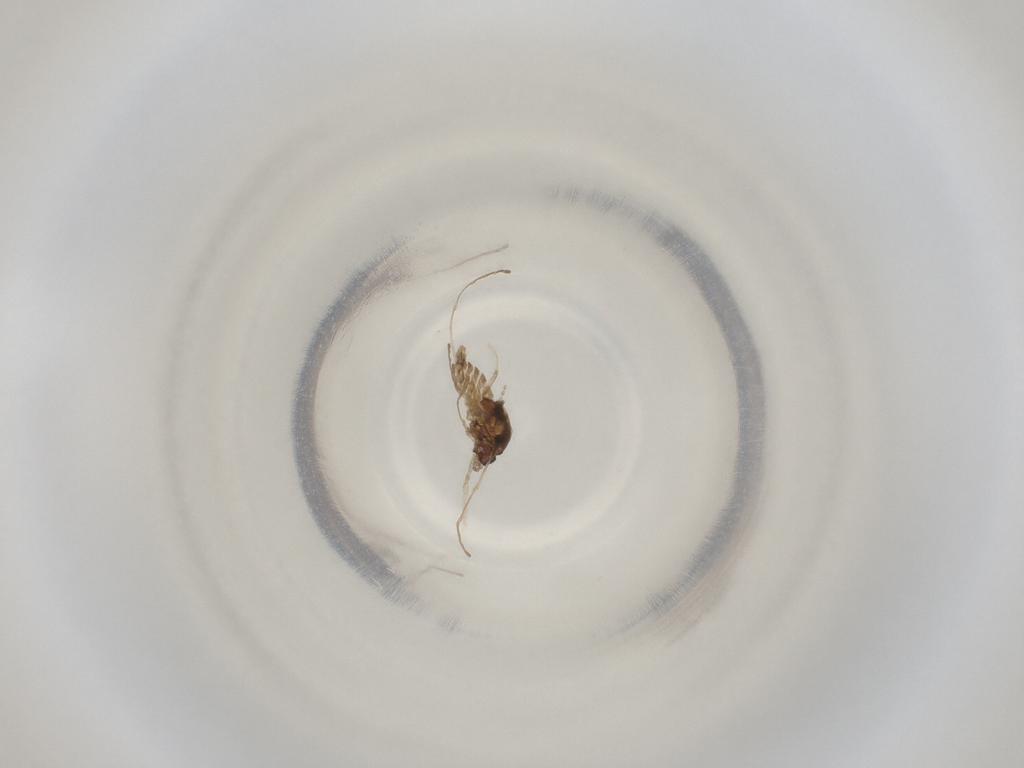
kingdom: Animalia
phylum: Arthropoda
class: Insecta
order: Diptera
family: Cecidomyiidae
